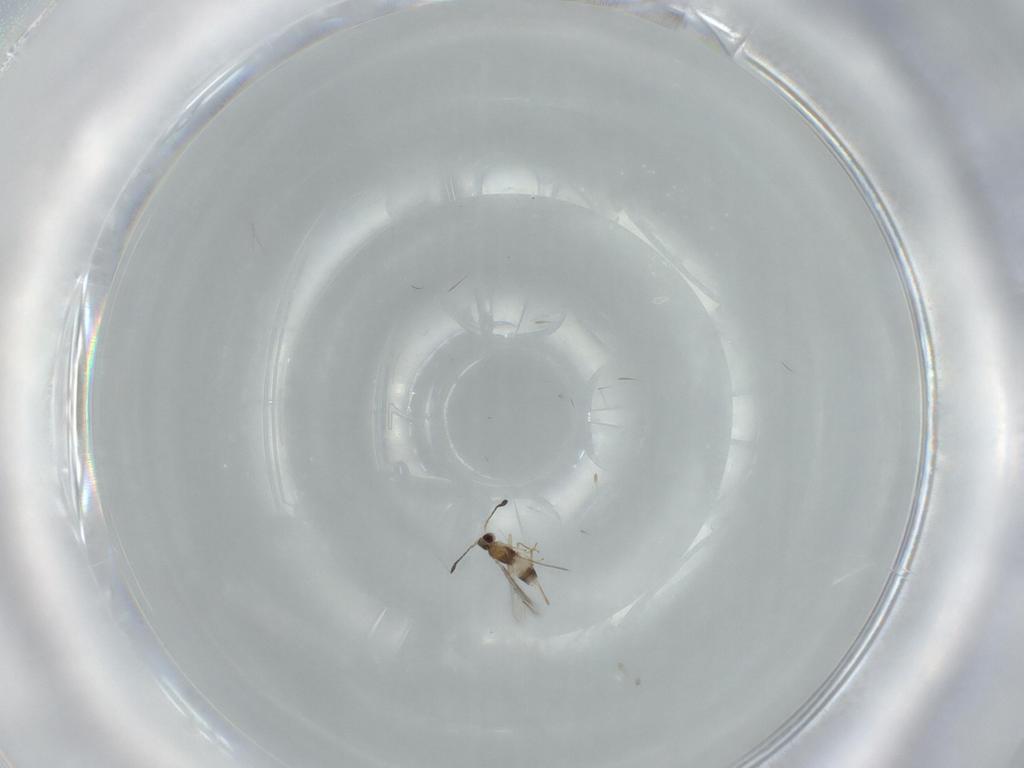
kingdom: Animalia
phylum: Arthropoda
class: Insecta
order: Hymenoptera
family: Mymaridae
